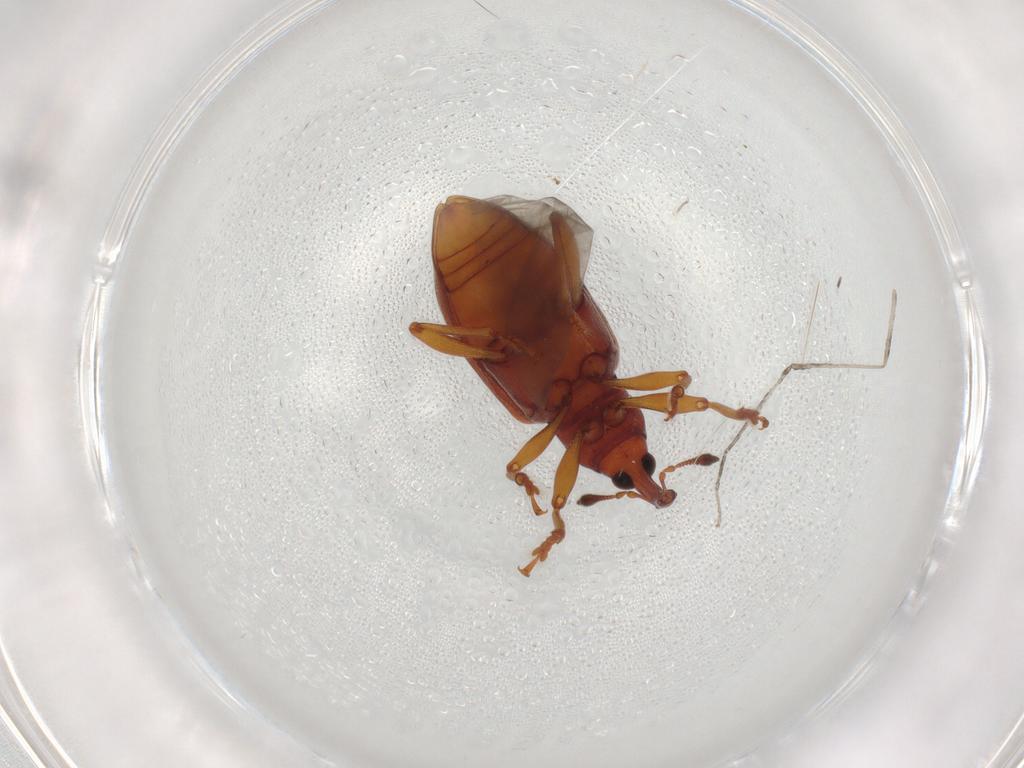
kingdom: Animalia
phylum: Arthropoda
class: Insecta
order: Coleoptera
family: Curculionidae
